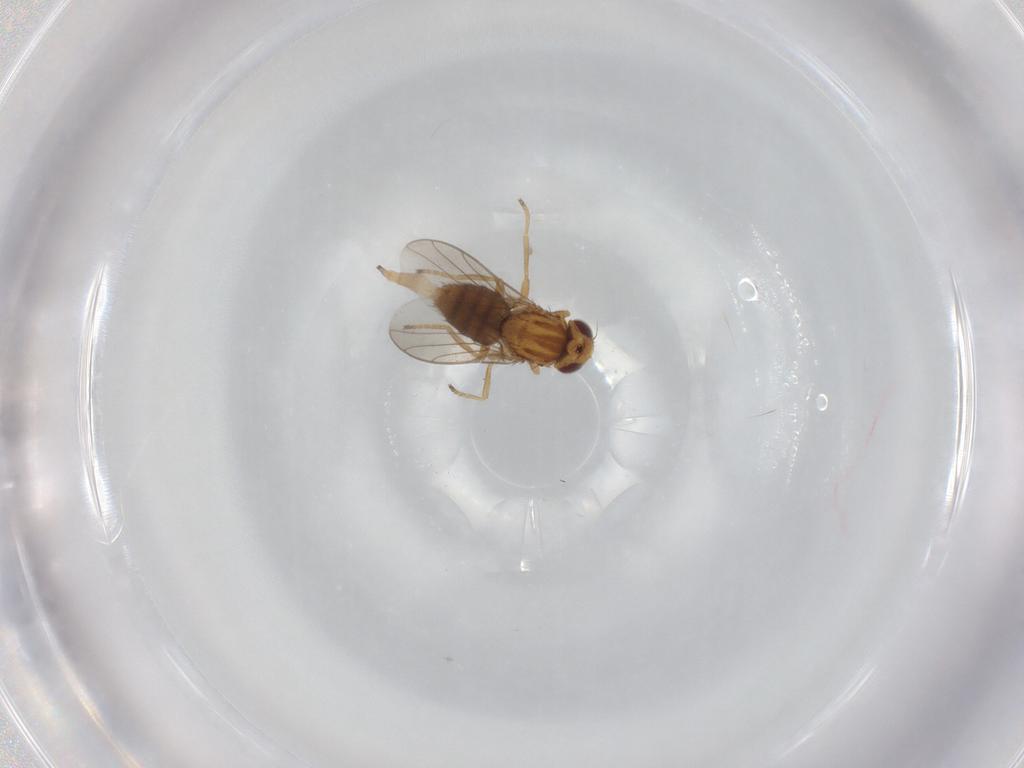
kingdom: Animalia
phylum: Arthropoda
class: Insecta
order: Diptera
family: Chloropidae
